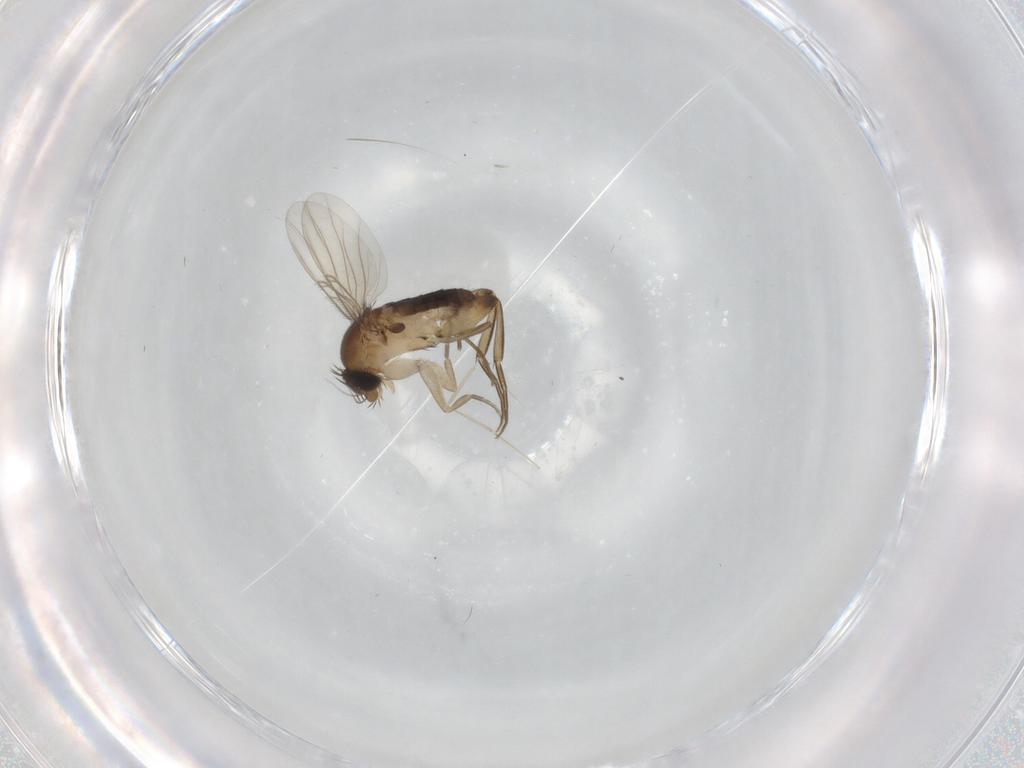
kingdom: Animalia
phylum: Arthropoda
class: Insecta
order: Diptera
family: Phoridae
